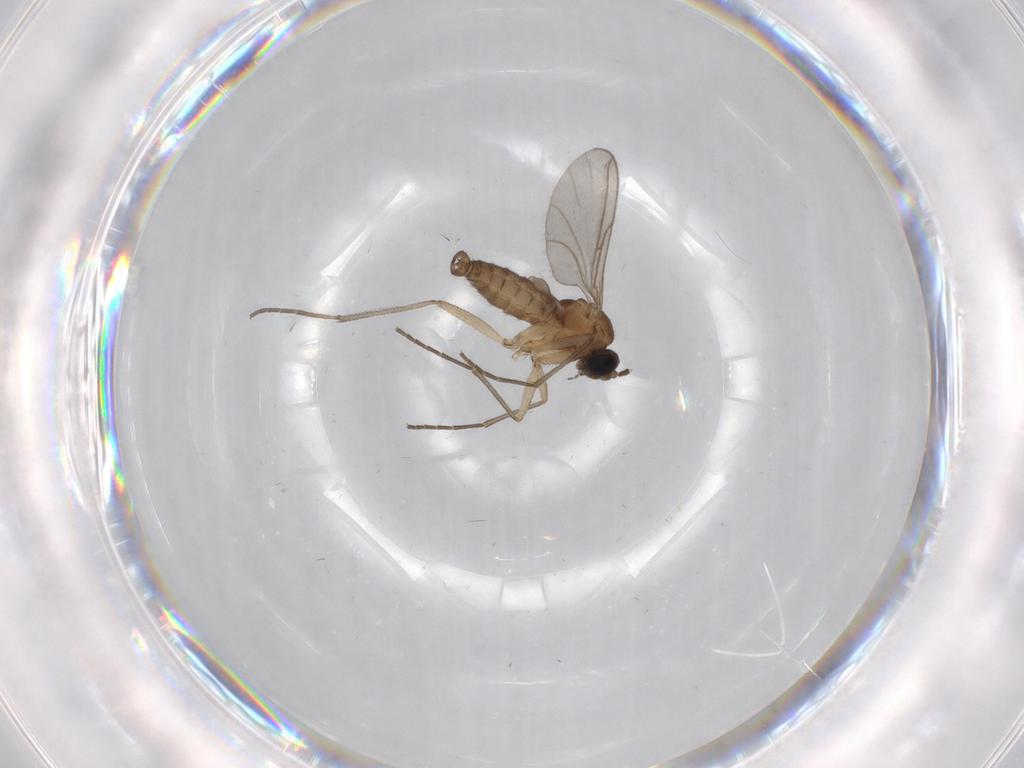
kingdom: Animalia
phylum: Arthropoda
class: Insecta
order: Diptera
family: Sciaridae
